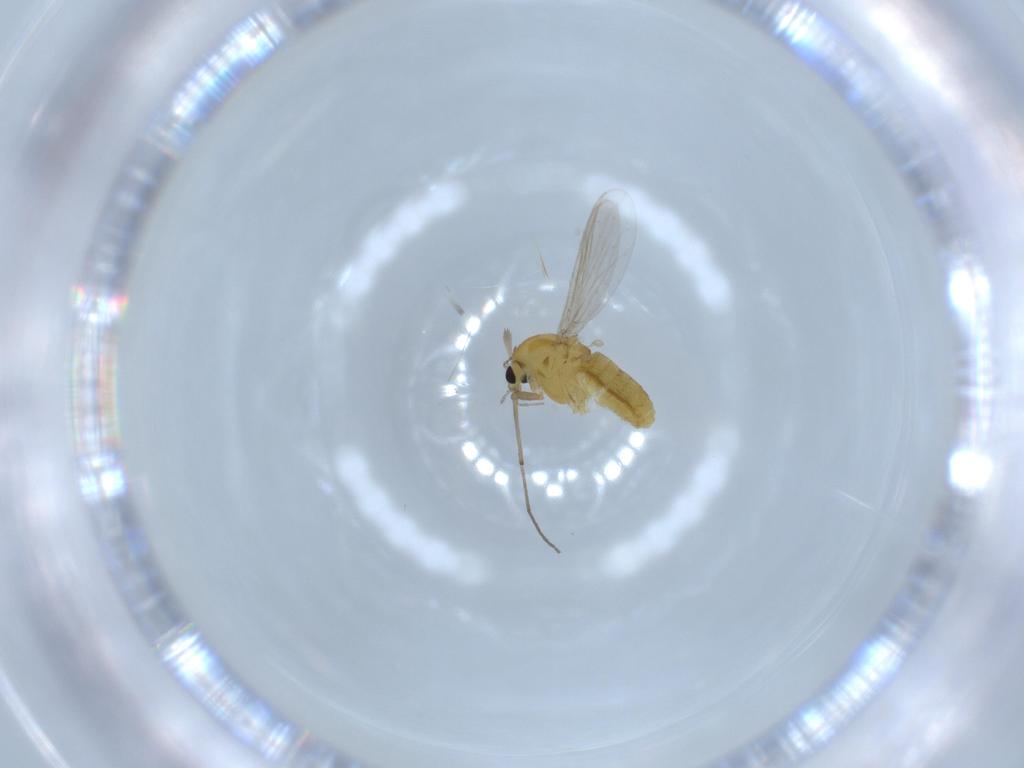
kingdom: Animalia
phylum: Arthropoda
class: Insecta
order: Diptera
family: Chironomidae
